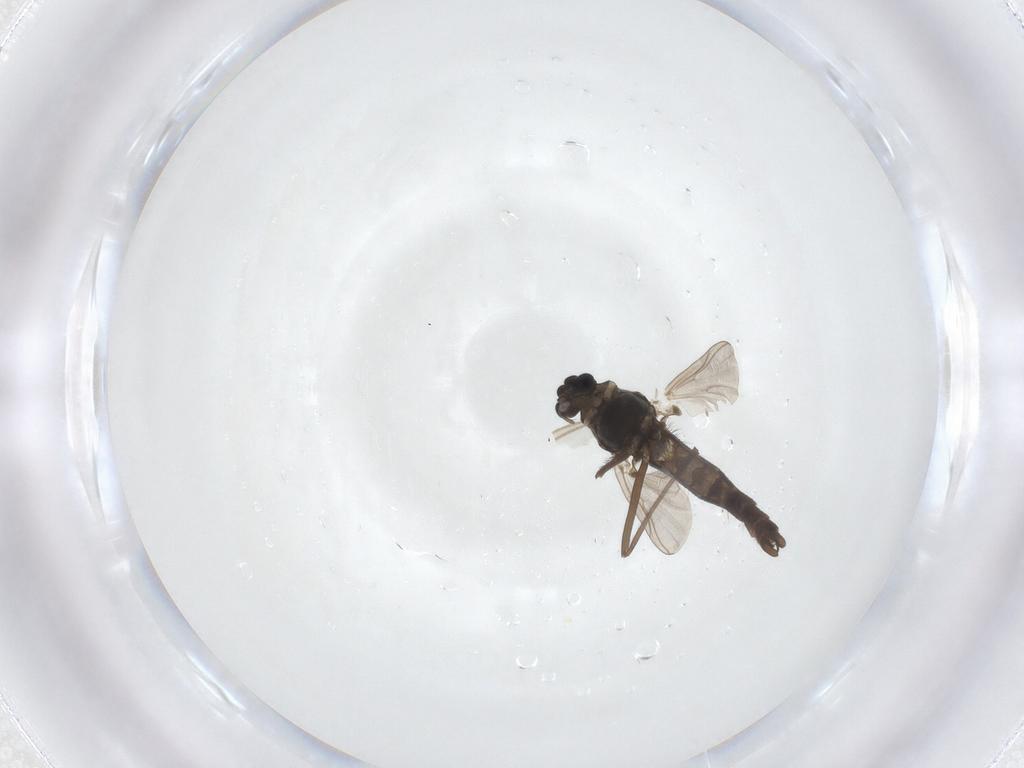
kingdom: Animalia
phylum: Arthropoda
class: Insecta
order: Diptera
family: Chironomidae
